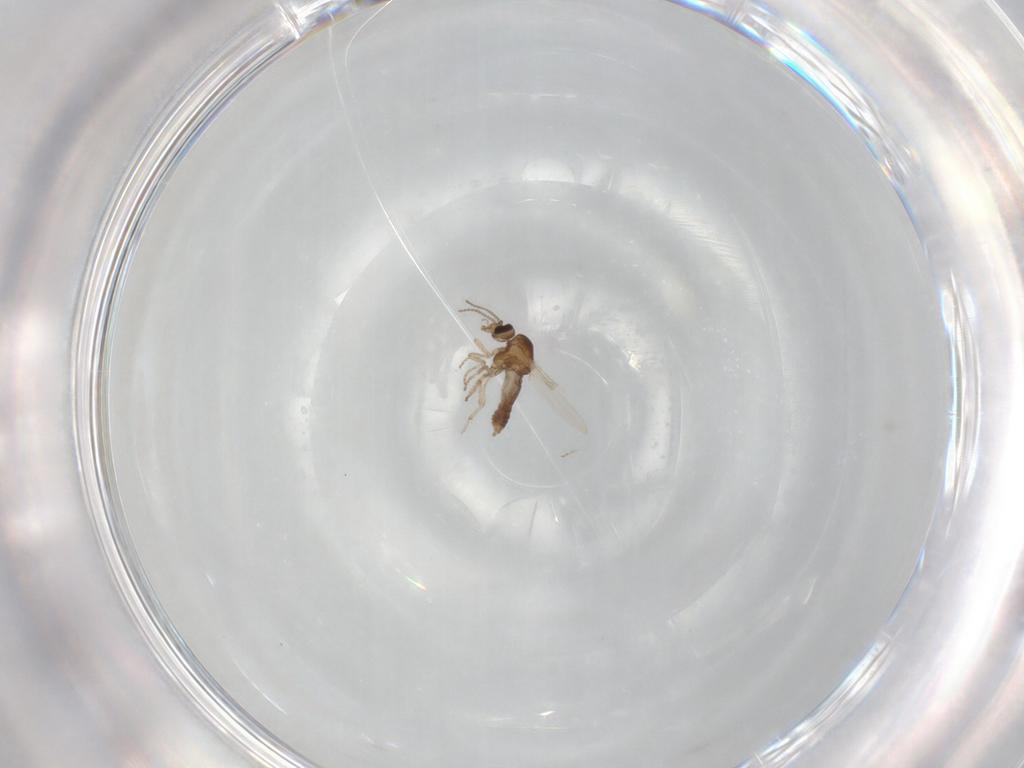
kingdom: Animalia
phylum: Arthropoda
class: Insecta
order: Diptera
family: Ceratopogonidae
